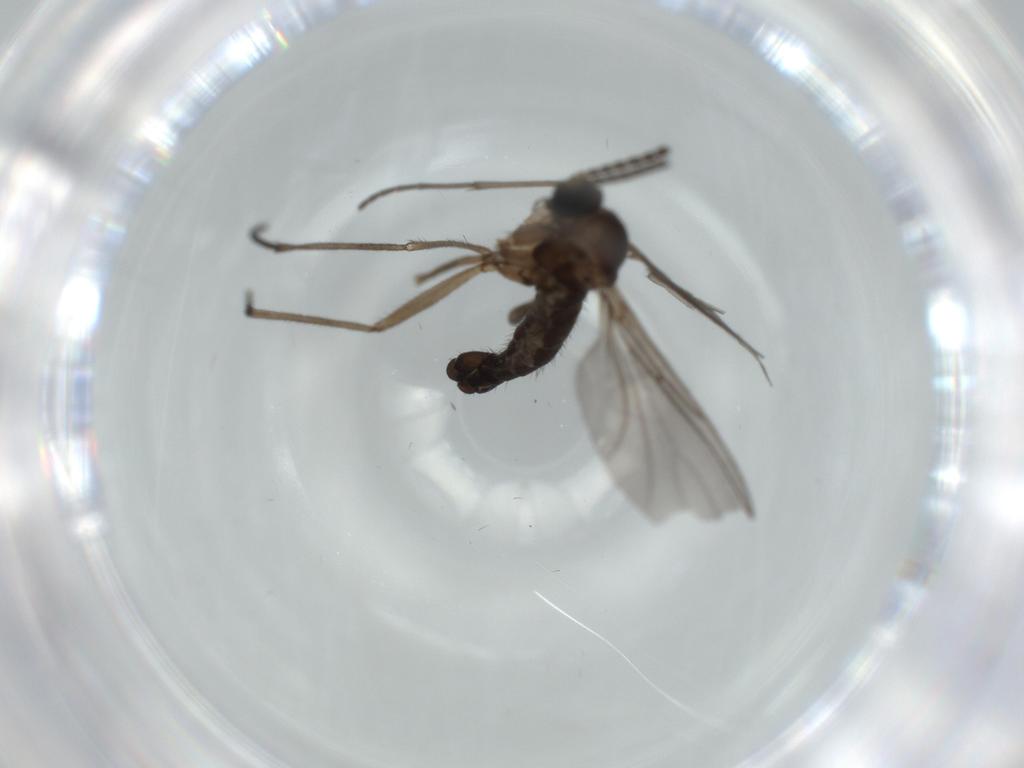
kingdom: Animalia
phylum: Arthropoda
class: Insecta
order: Diptera
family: Sciaridae
